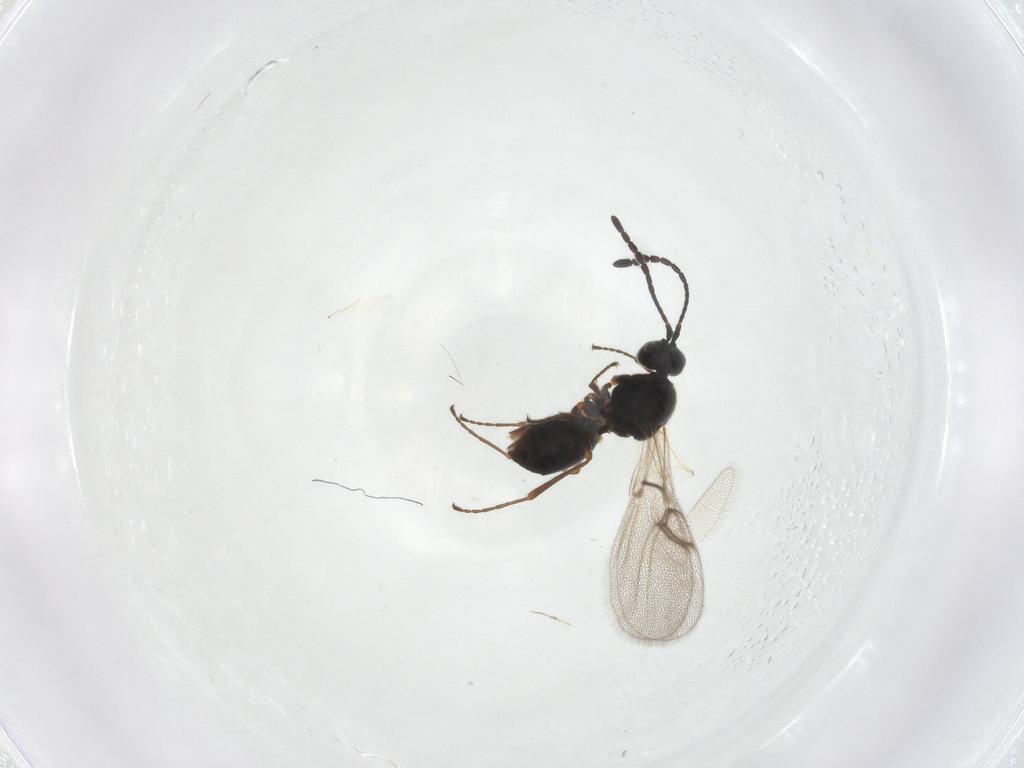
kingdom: Animalia
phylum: Arthropoda
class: Insecta
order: Hymenoptera
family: Figitidae
